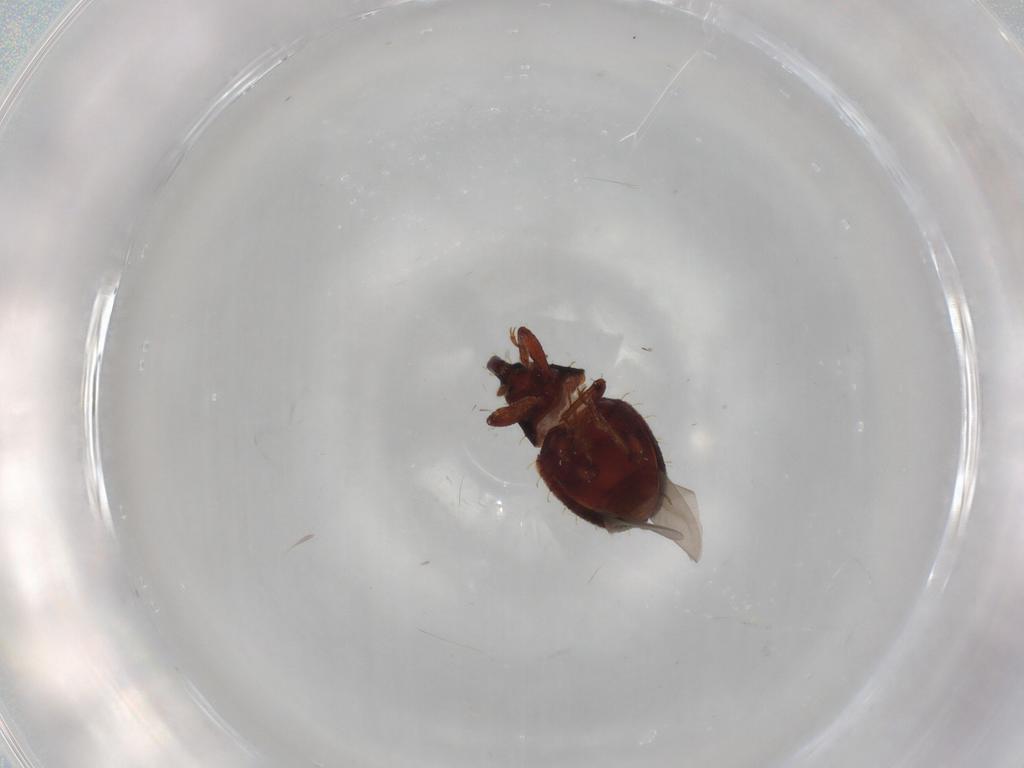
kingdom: Animalia
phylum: Arthropoda
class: Insecta
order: Coleoptera
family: Curculionidae
